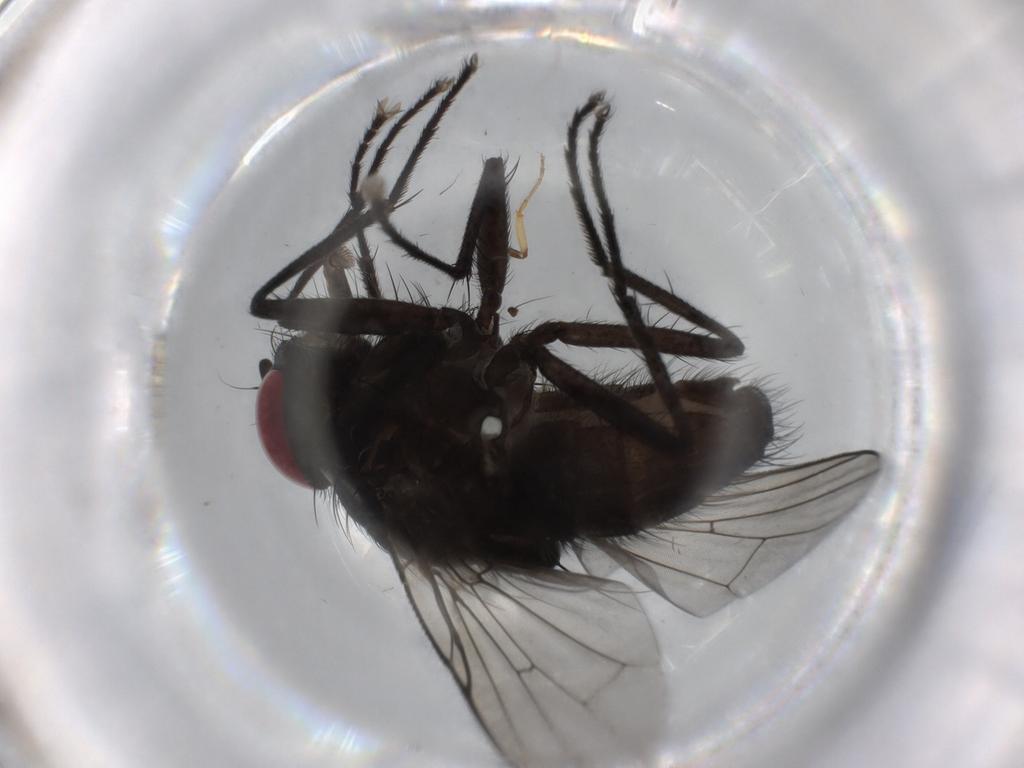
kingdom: Animalia
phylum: Arthropoda
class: Insecta
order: Diptera
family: Muscidae
